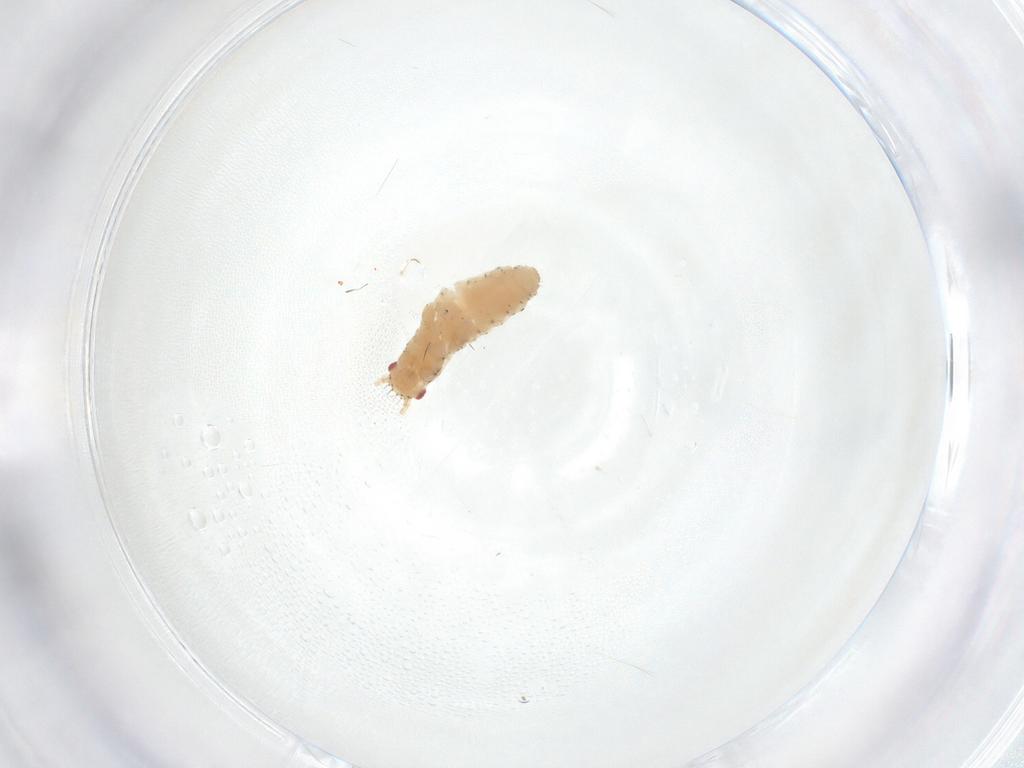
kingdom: Animalia
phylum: Arthropoda
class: Insecta
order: Hemiptera
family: Aphididae
